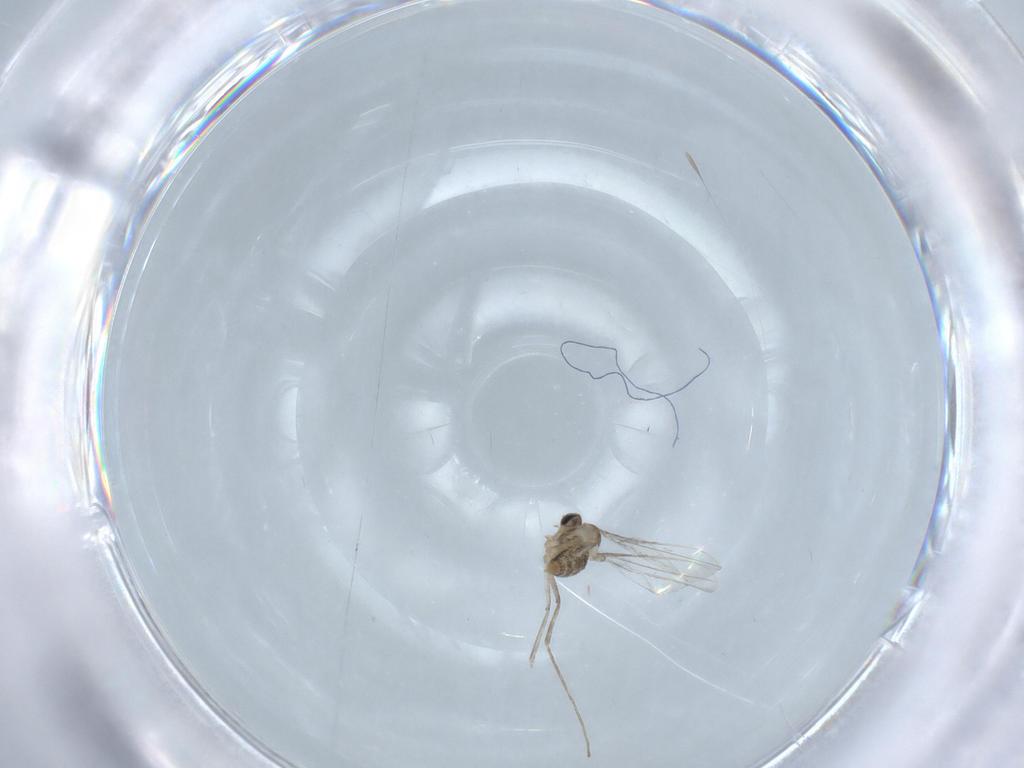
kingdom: Animalia
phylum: Arthropoda
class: Insecta
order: Diptera
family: Cecidomyiidae
